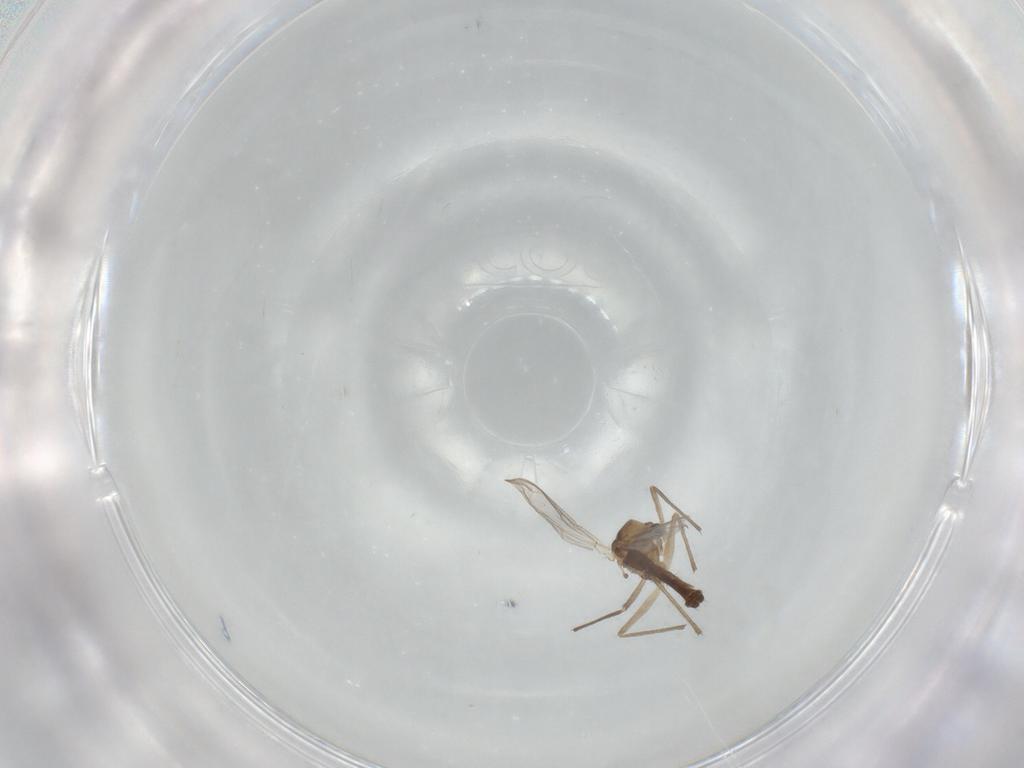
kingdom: Animalia
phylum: Arthropoda
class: Insecta
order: Diptera
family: Chironomidae
